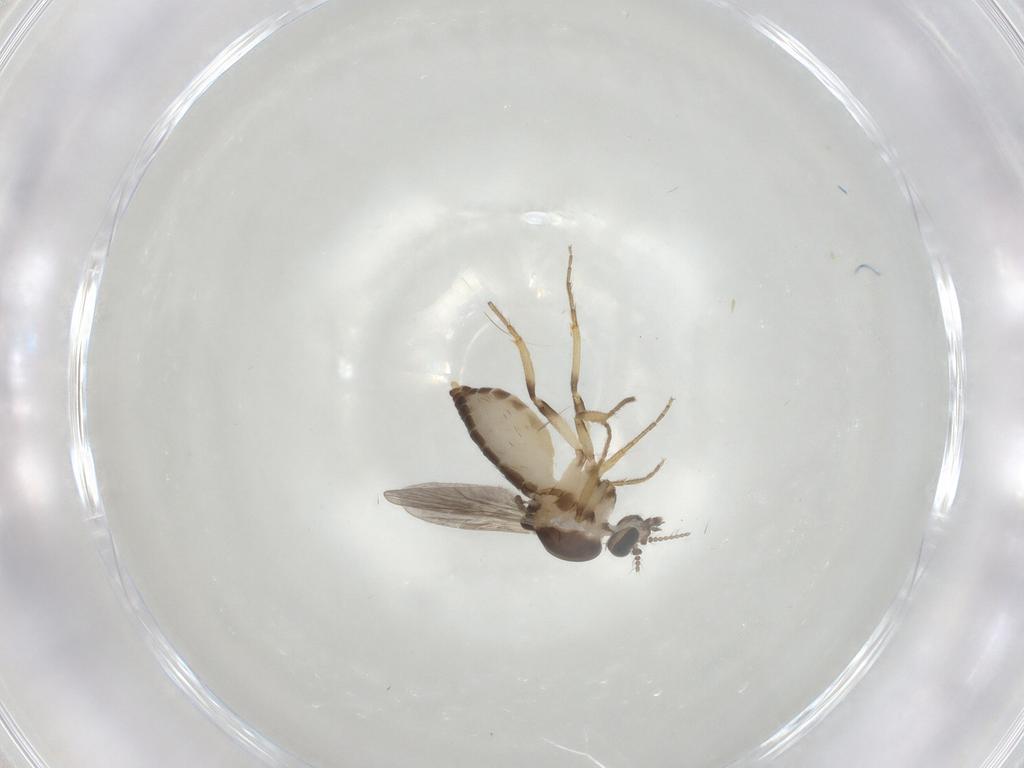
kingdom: Animalia
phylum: Arthropoda
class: Insecta
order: Diptera
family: Ceratopogonidae
